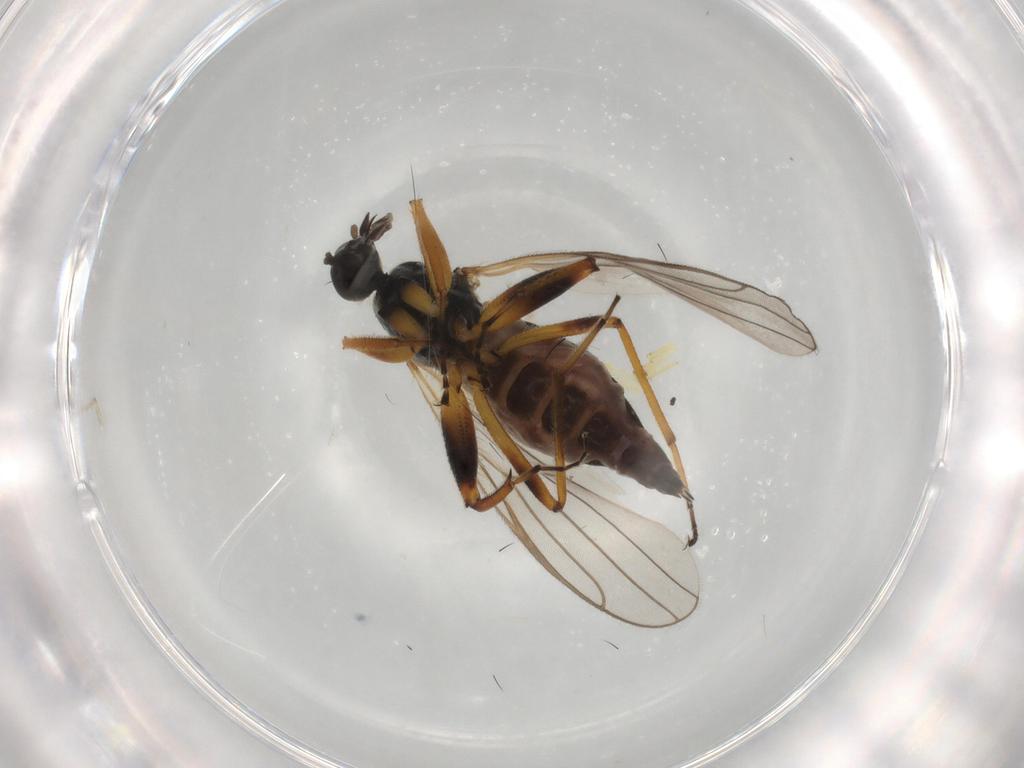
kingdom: Animalia
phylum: Arthropoda
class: Insecta
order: Diptera
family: Hybotidae
